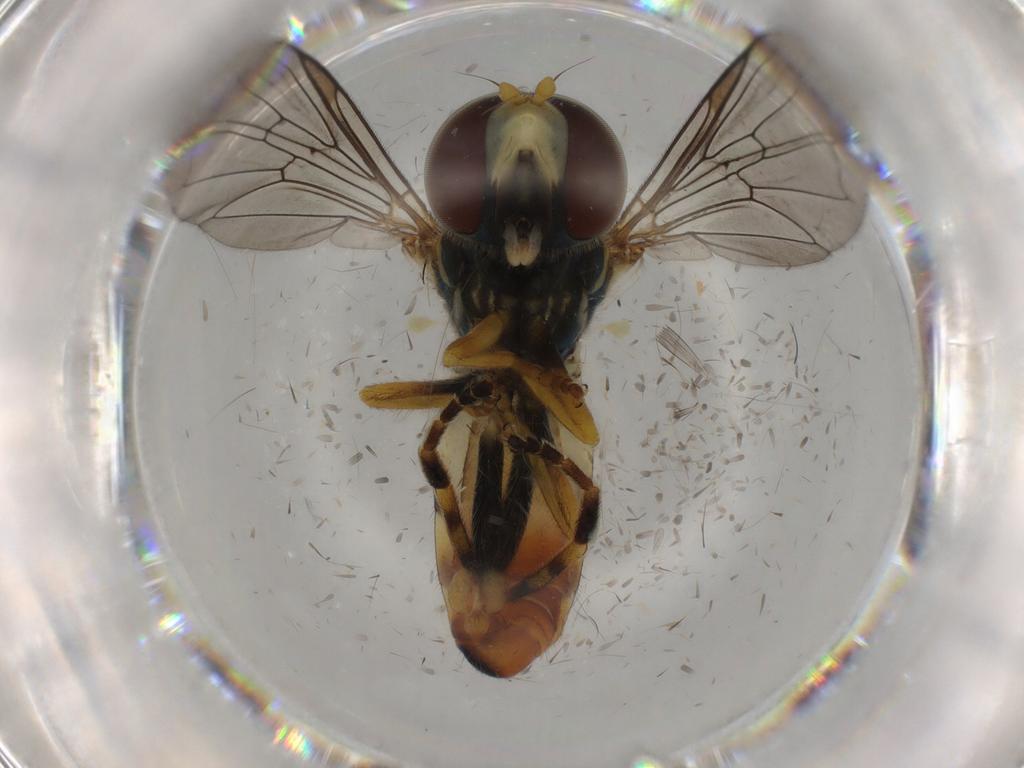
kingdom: Animalia
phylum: Arthropoda
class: Insecta
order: Diptera
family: Syrphidae
